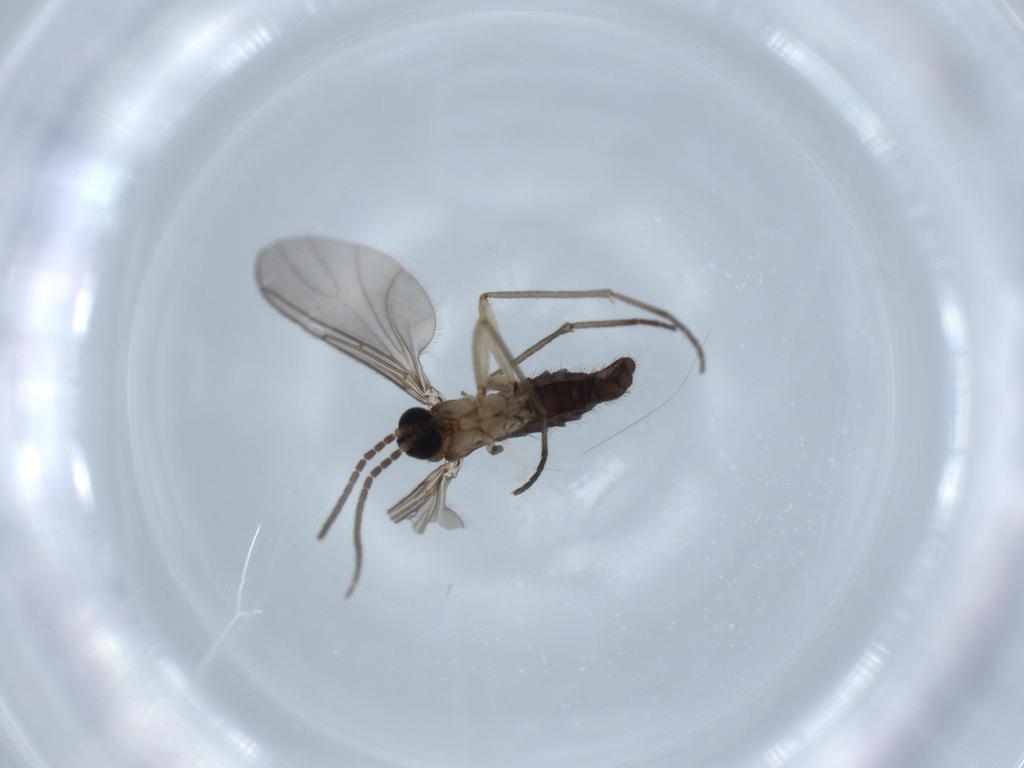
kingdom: Animalia
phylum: Arthropoda
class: Insecta
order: Diptera
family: Sciaridae
